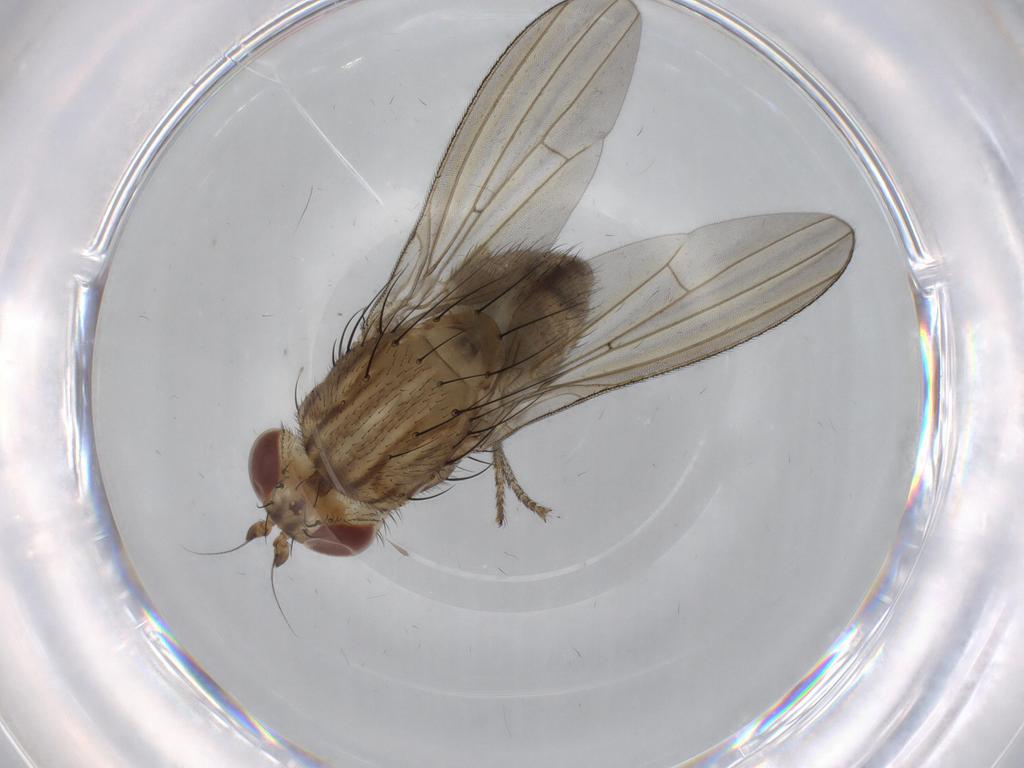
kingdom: Animalia
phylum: Arthropoda
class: Insecta
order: Diptera
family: Chironomidae
